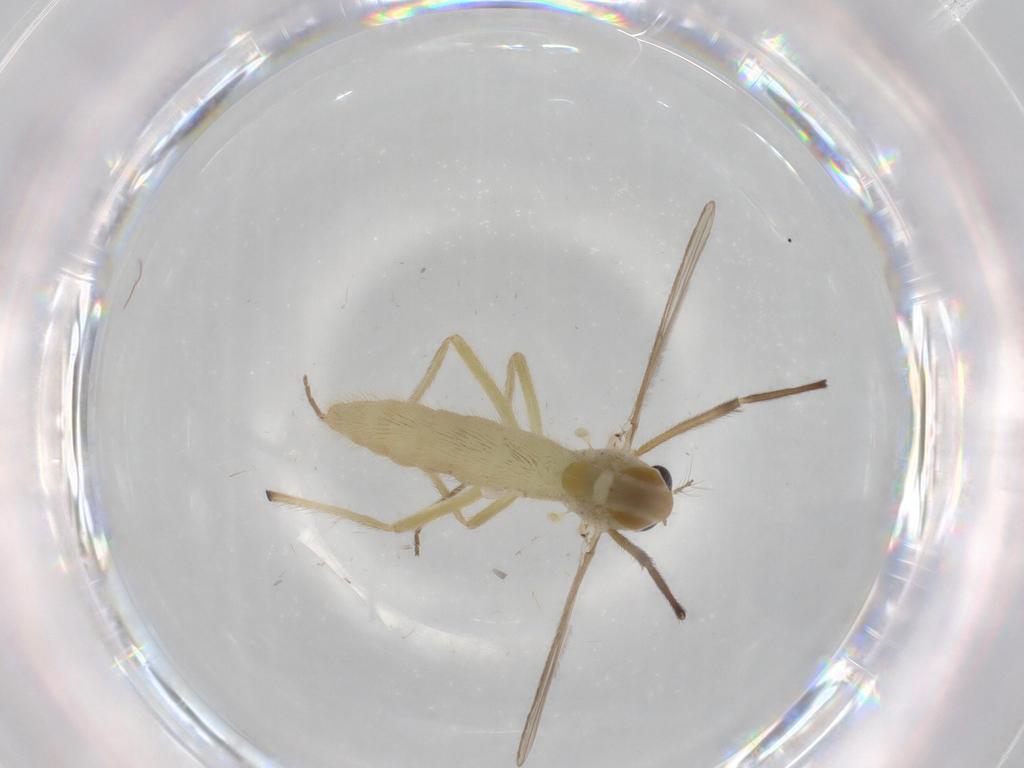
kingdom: Animalia
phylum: Arthropoda
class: Insecta
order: Diptera
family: Chironomidae
